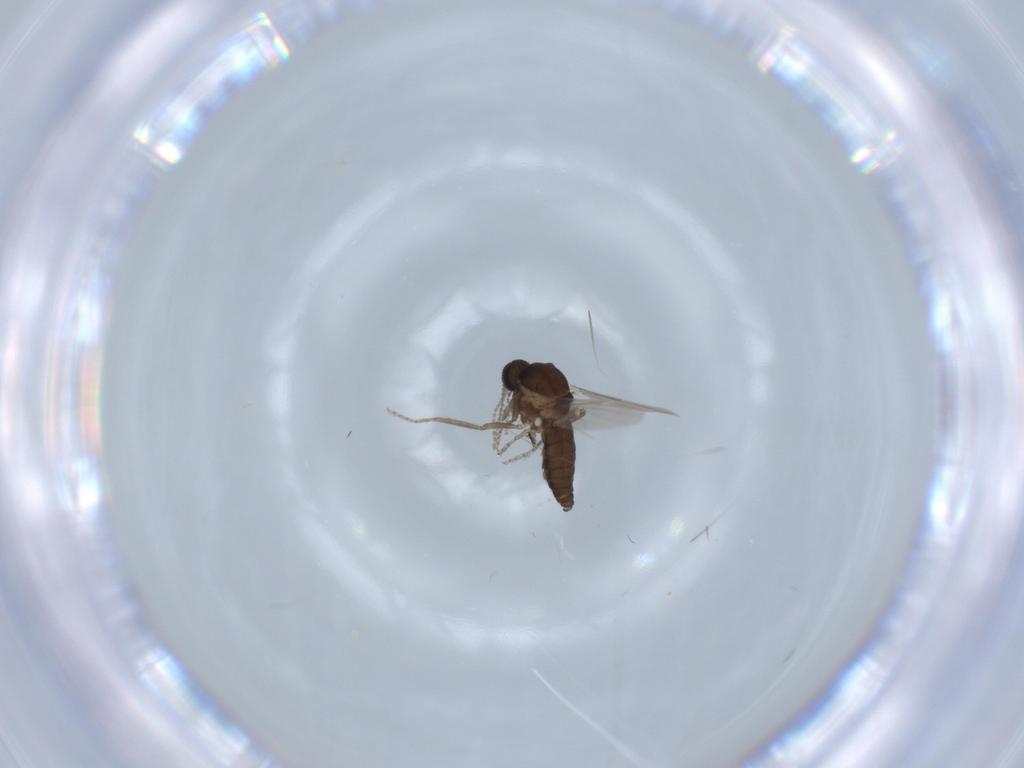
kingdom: Animalia
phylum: Arthropoda
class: Insecta
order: Diptera
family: Ceratopogonidae
